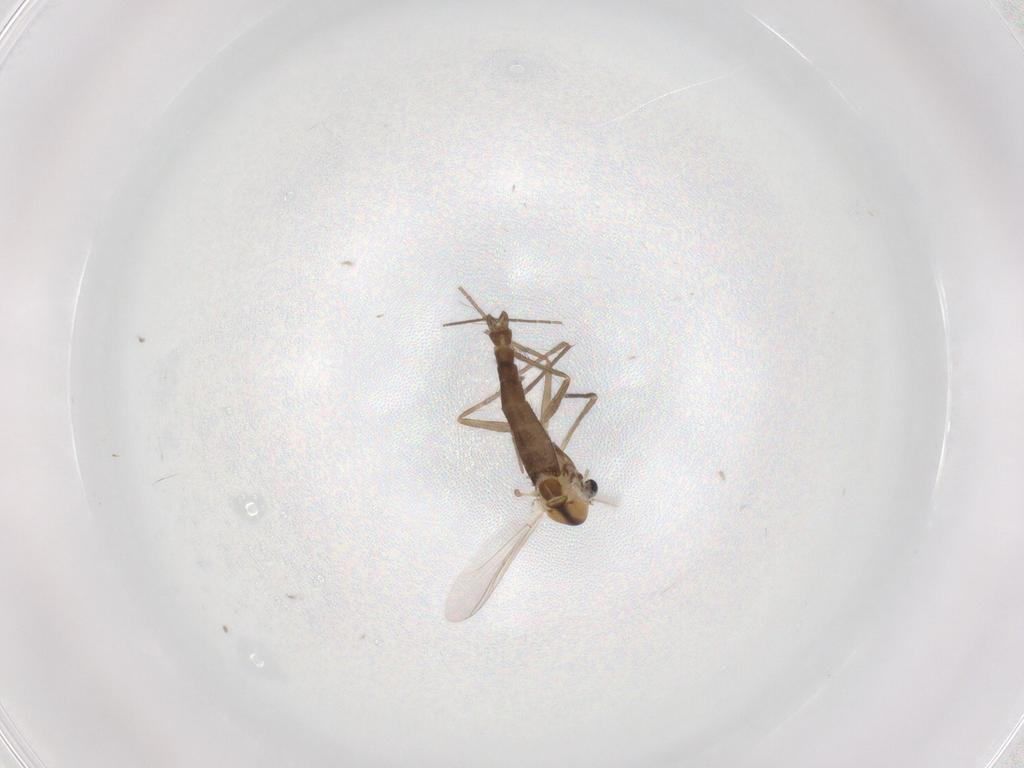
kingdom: Animalia
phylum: Arthropoda
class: Insecta
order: Diptera
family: Chironomidae
